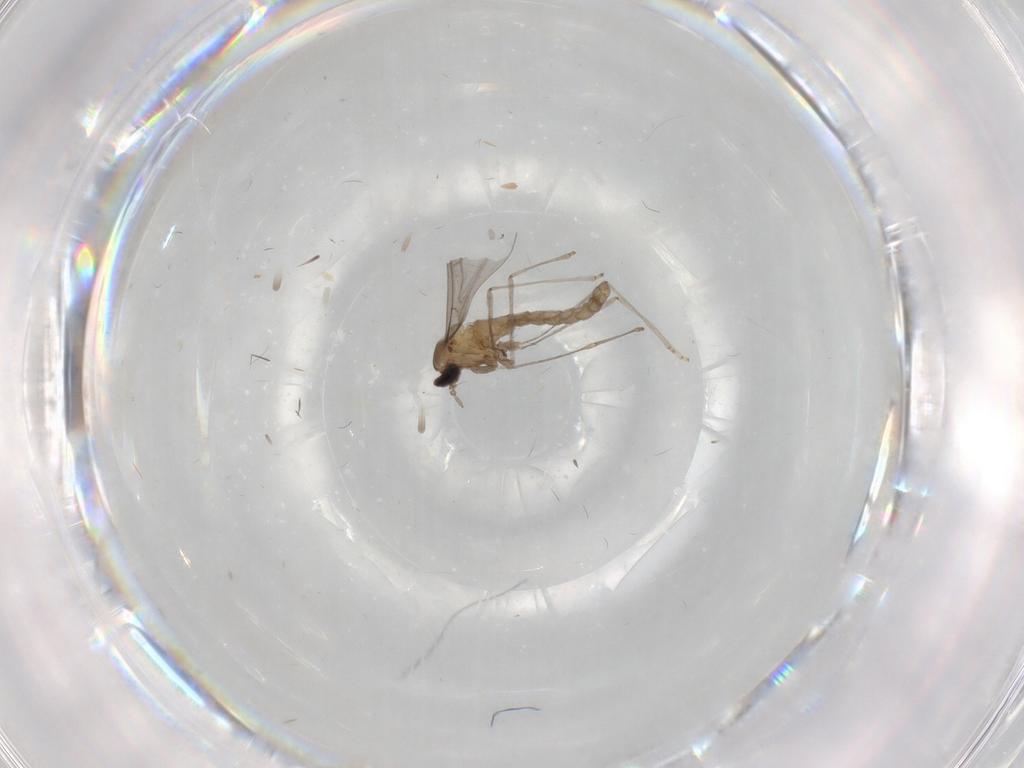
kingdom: Animalia
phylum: Arthropoda
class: Insecta
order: Diptera
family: Cecidomyiidae
